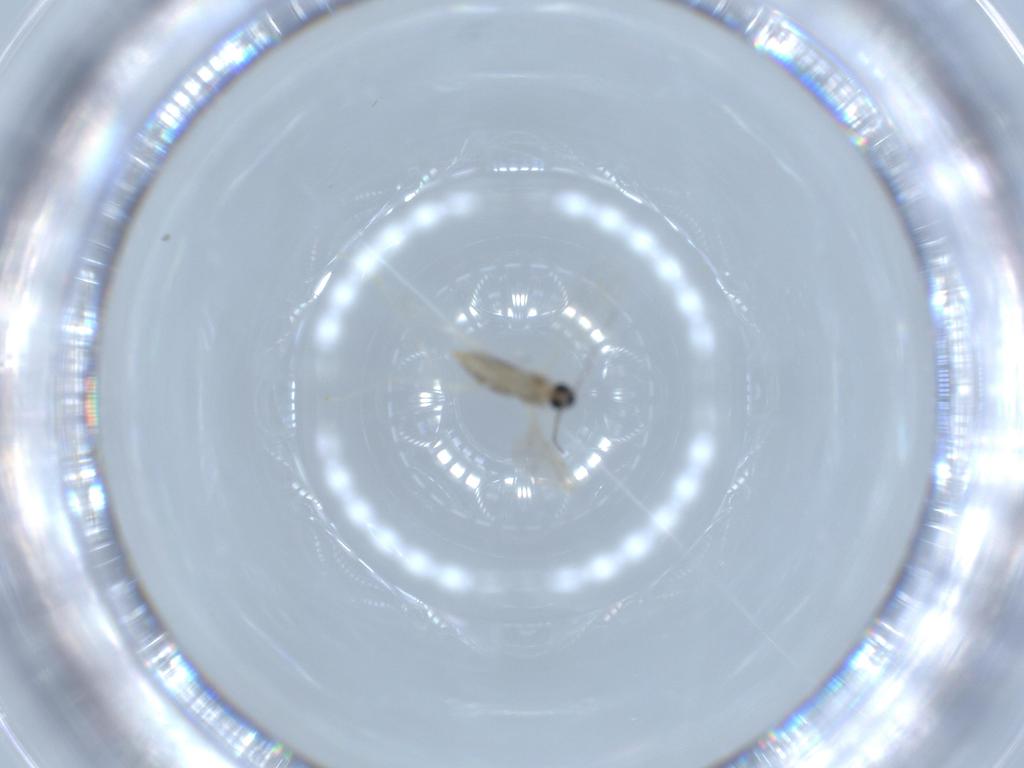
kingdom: Animalia
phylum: Arthropoda
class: Insecta
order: Diptera
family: Cecidomyiidae
